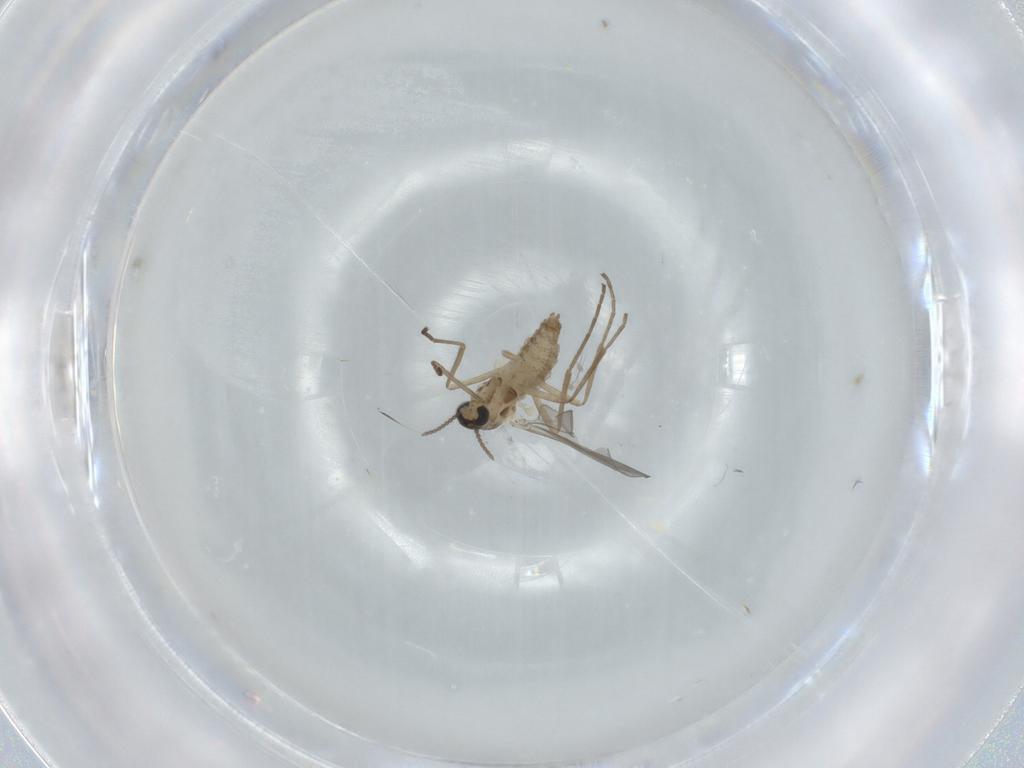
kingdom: Animalia
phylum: Arthropoda
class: Insecta
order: Diptera
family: Cecidomyiidae
